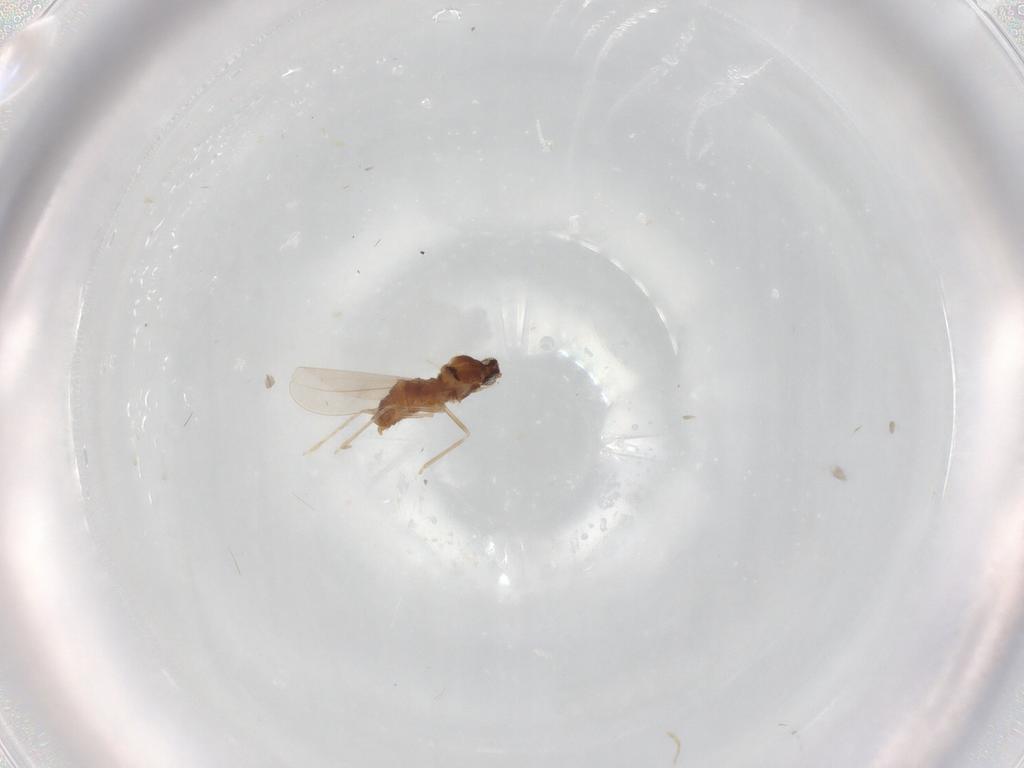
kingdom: Animalia
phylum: Arthropoda
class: Insecta
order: Diptera
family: Cecidomyiidae
